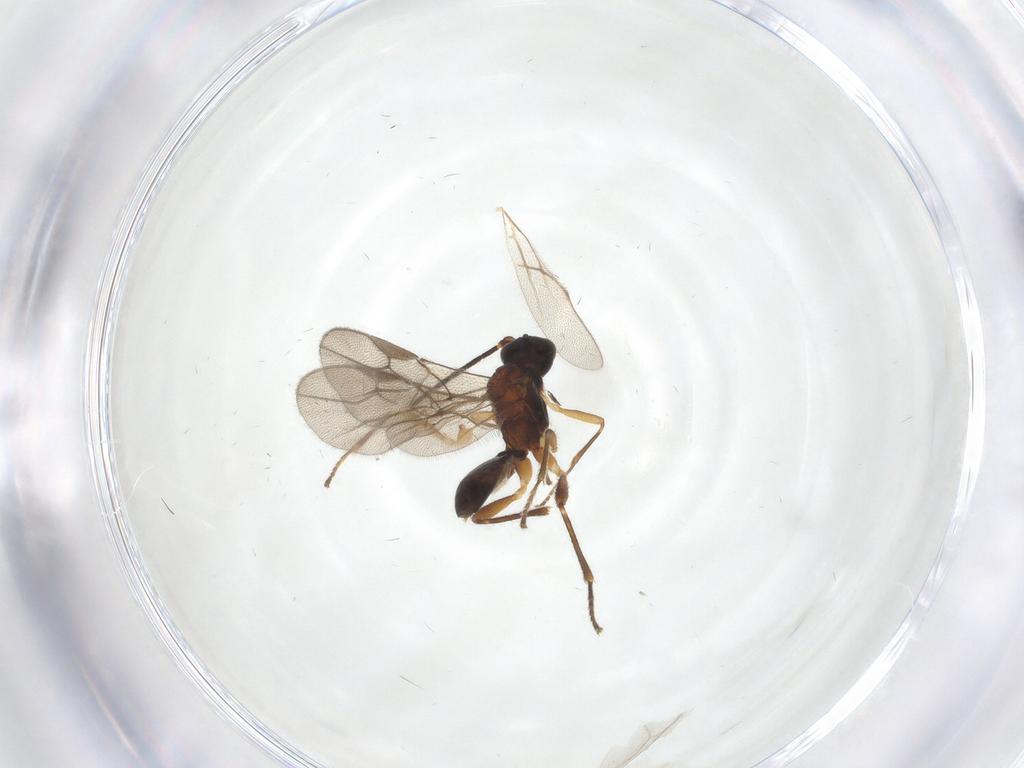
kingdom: Animalia
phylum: Arthropoda
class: Insecta
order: Hymenoptera
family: Braconidae
